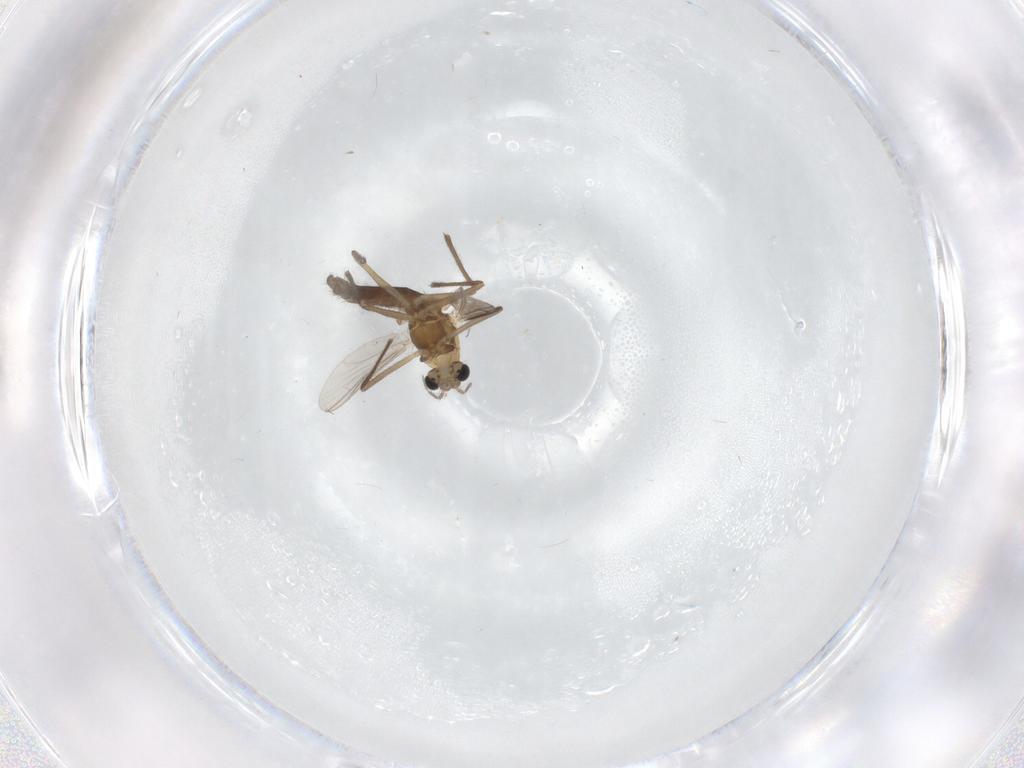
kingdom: Animalia
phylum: Arthropoda
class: Insecta
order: Diptera
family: Chironomidae
